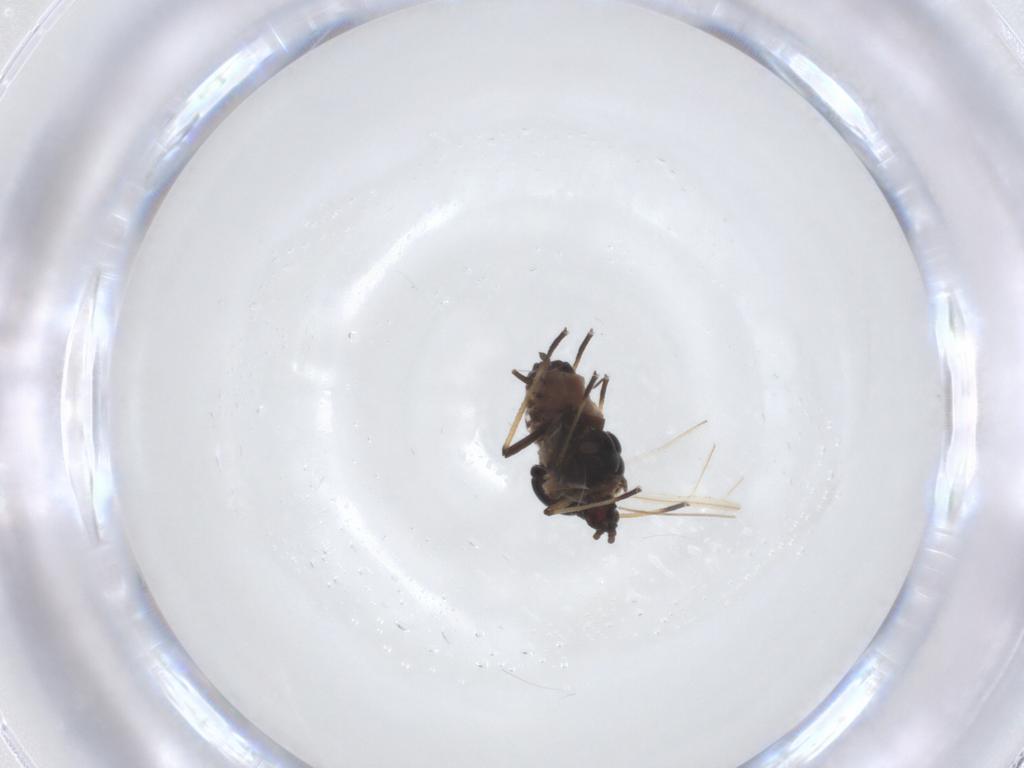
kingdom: Animalia
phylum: Arthropoda
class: Insecta
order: Hemiptera
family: Aphididae
